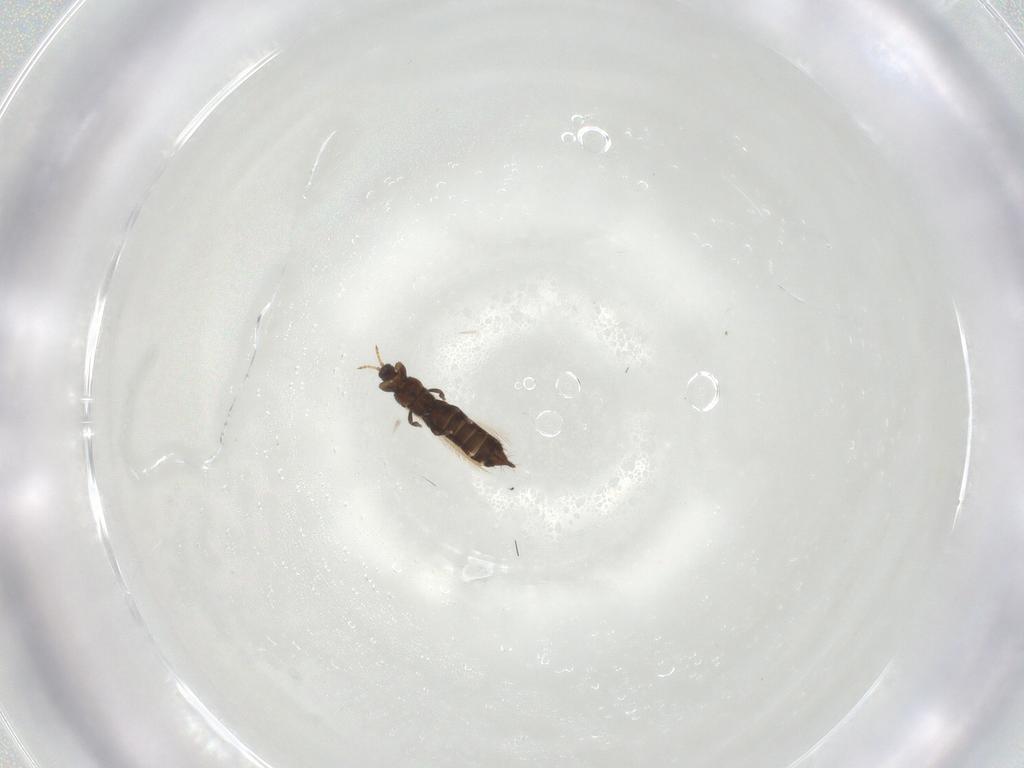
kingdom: Animalia
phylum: Arthropoda
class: Insecta
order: Thysanoptera
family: Thripidae
